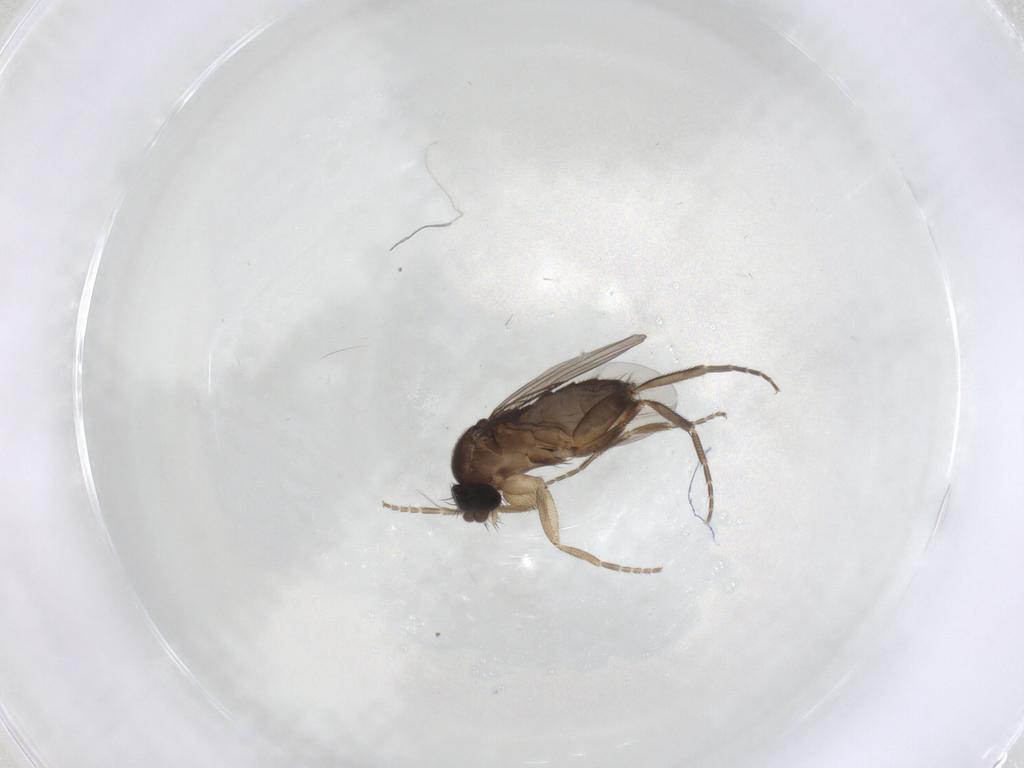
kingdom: Animalia
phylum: Arthropoda
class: Insecta
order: Diptera
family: Phoridae
